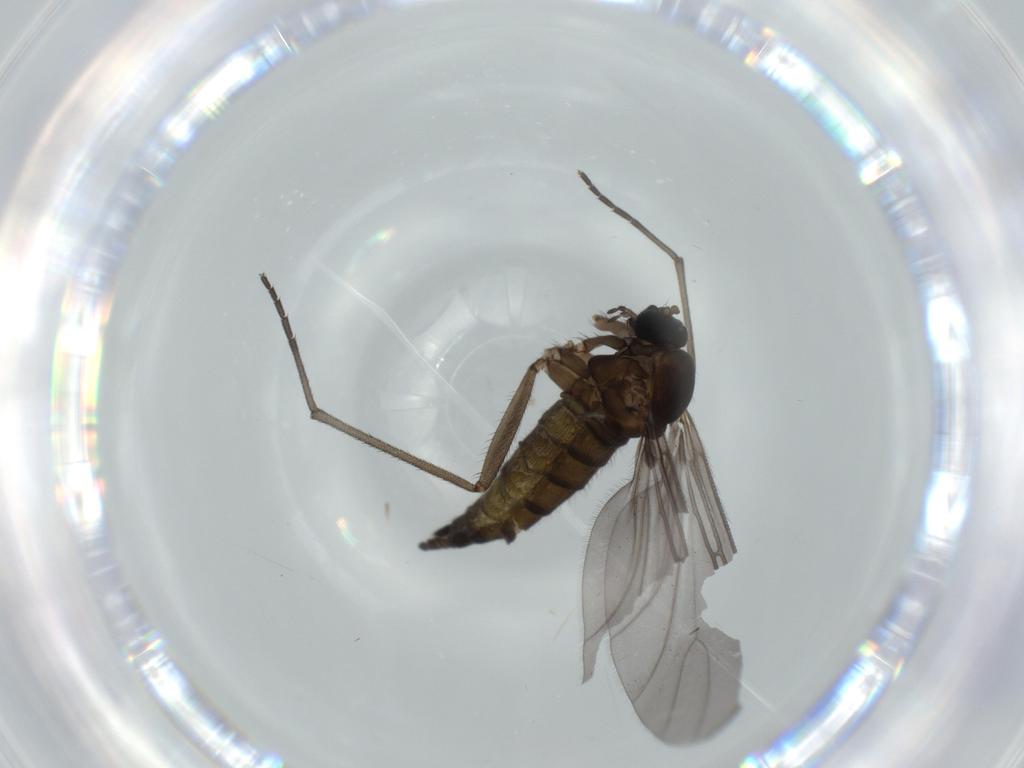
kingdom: Animalia
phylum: Arthropoda
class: Insecta
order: Diptera
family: Sciaridae
